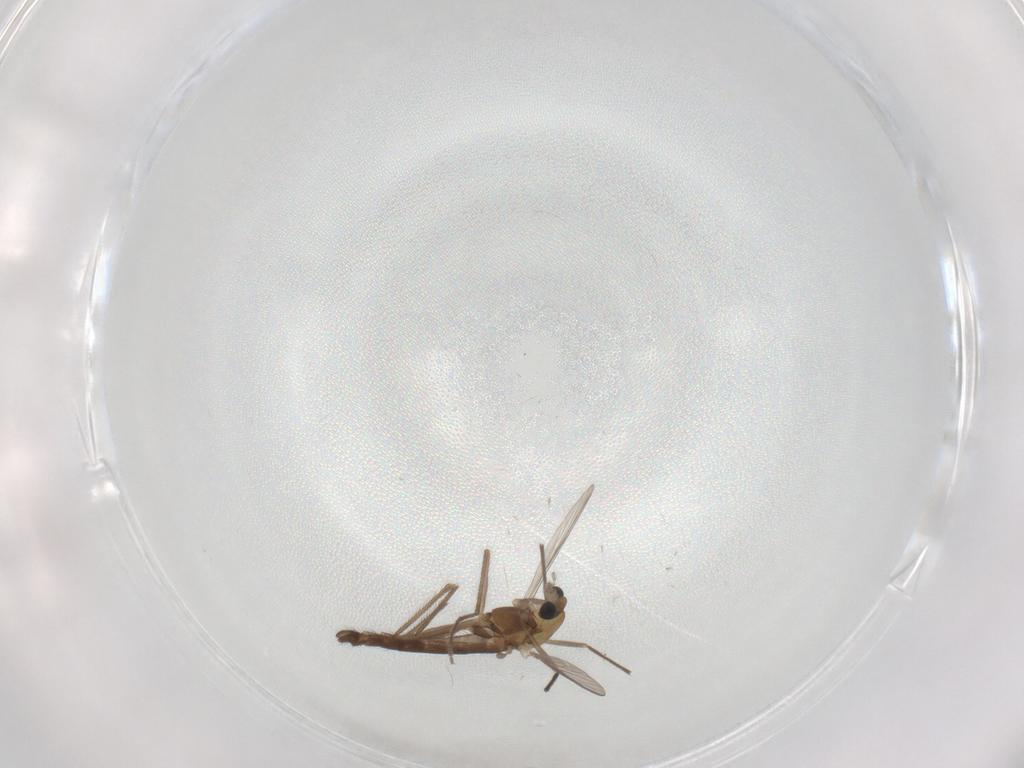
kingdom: Animalia
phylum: Arthropoda
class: Insecta
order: Diptera
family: Chironomidae
